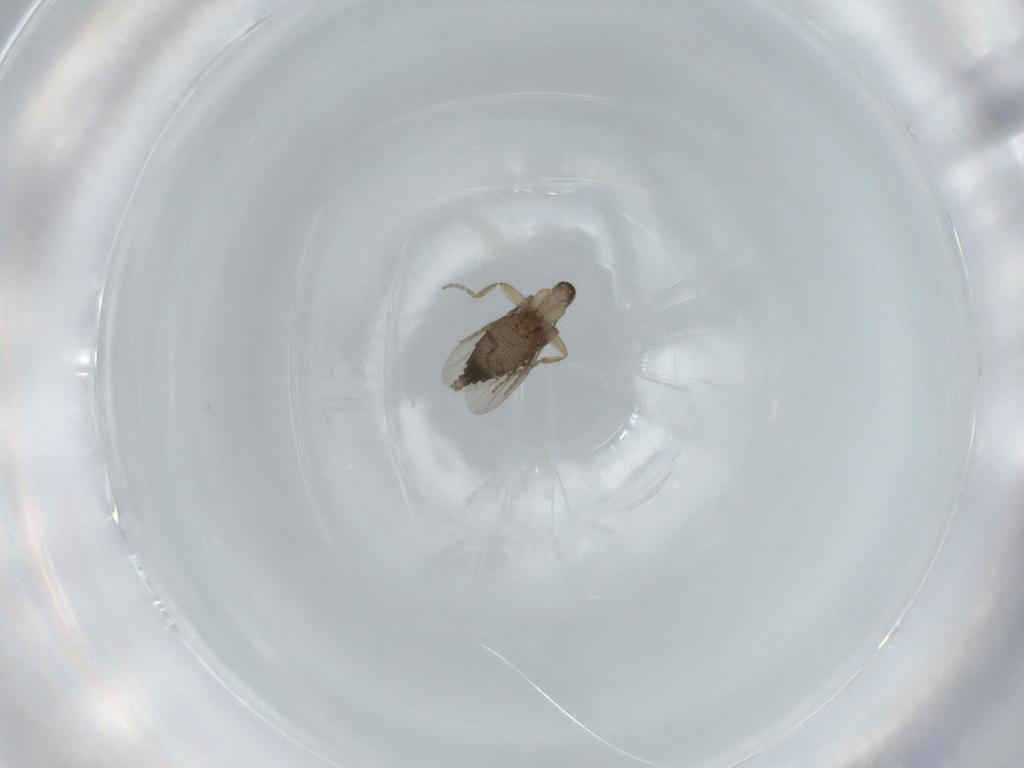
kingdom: Animalia
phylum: Arthropoda
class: Insecta
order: Diptera
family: Phoridae
